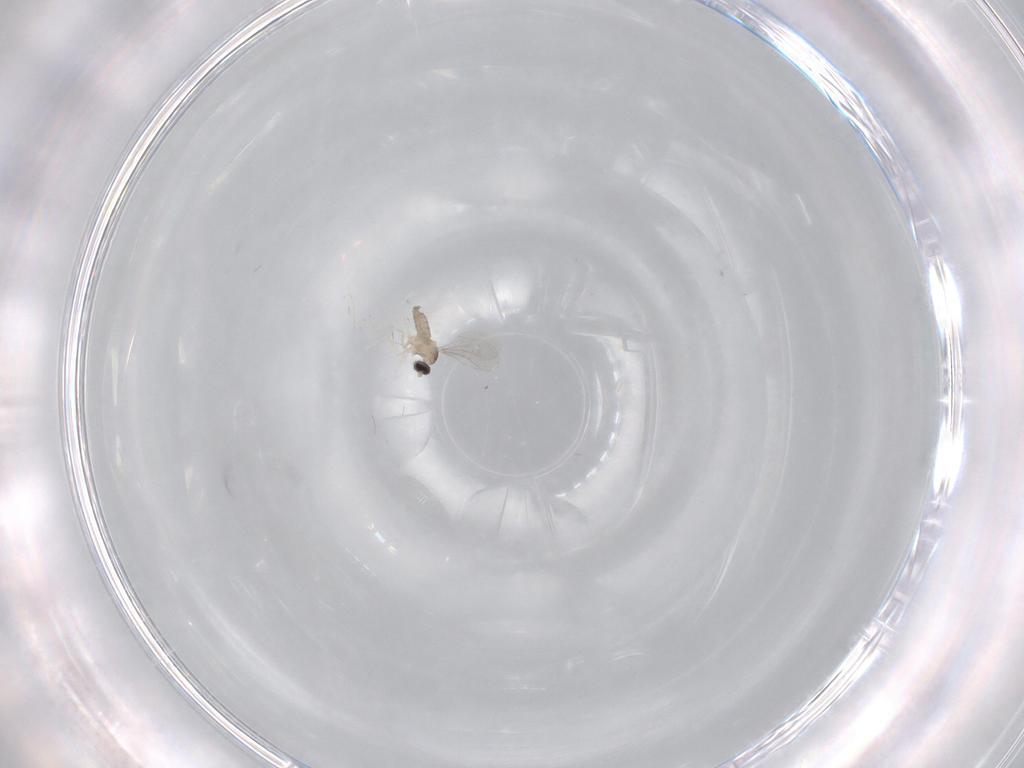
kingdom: Animalia
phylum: Arthropoda
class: Insecta
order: Diptera
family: Cecidomyiidae
